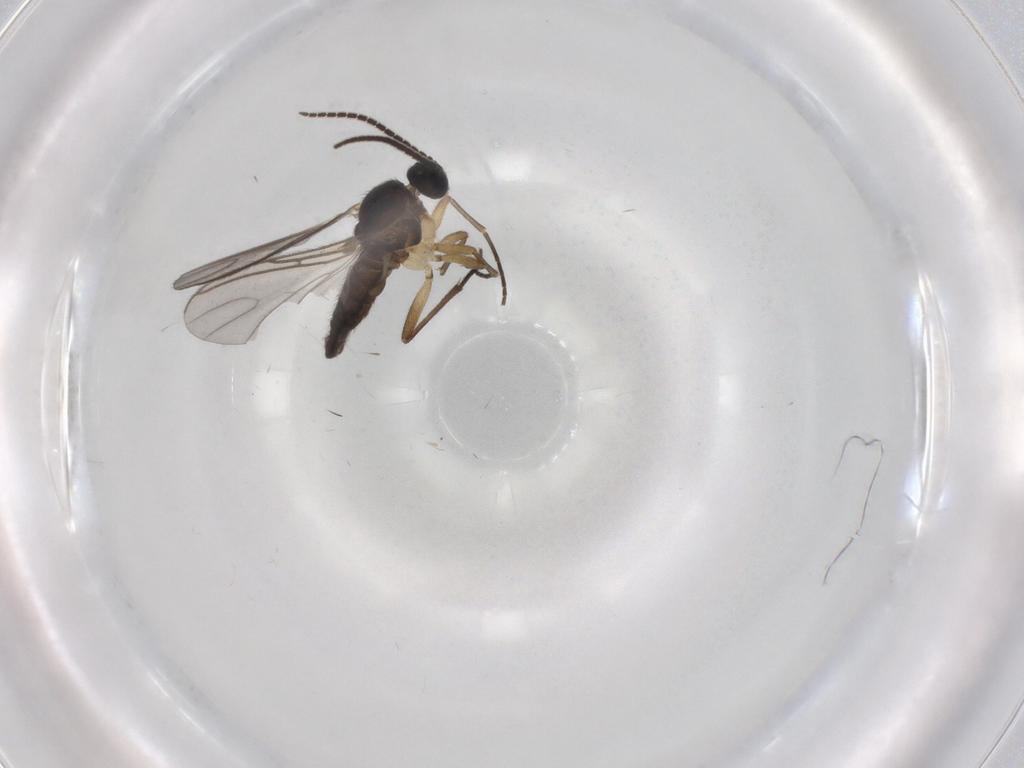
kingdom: Animalia
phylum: Arthropoda
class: Insecta
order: Diptera
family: Sciaridae
